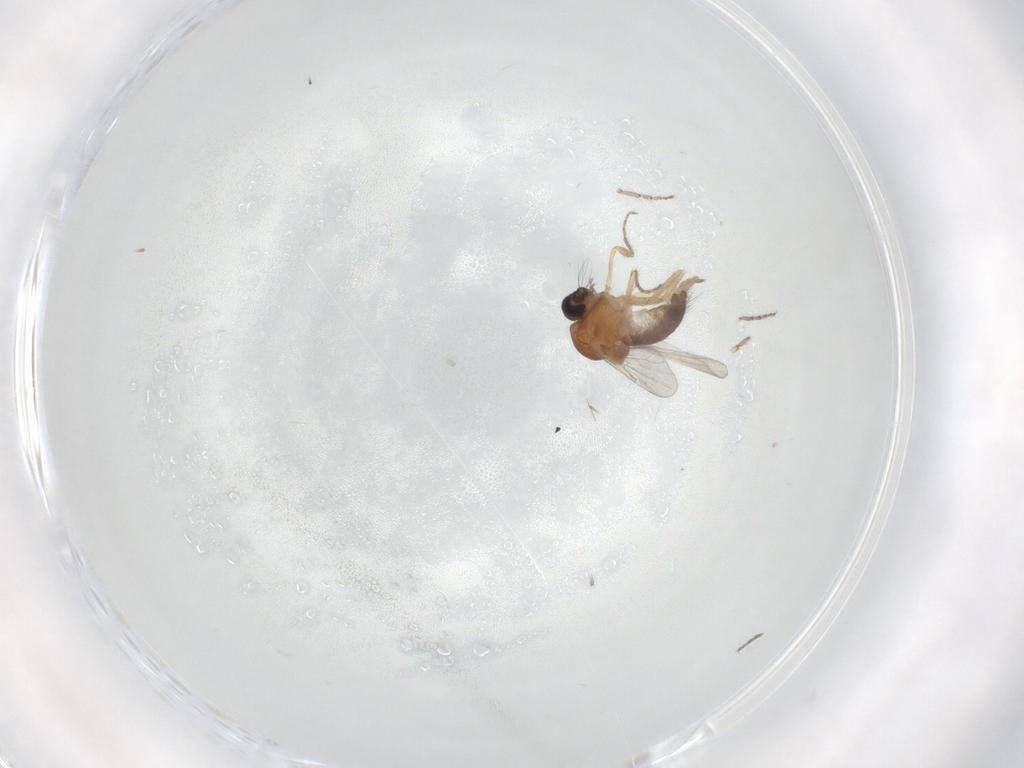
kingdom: Animalia
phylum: Arthropoda
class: Insecta
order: Diptera
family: Ceratopogonidae
